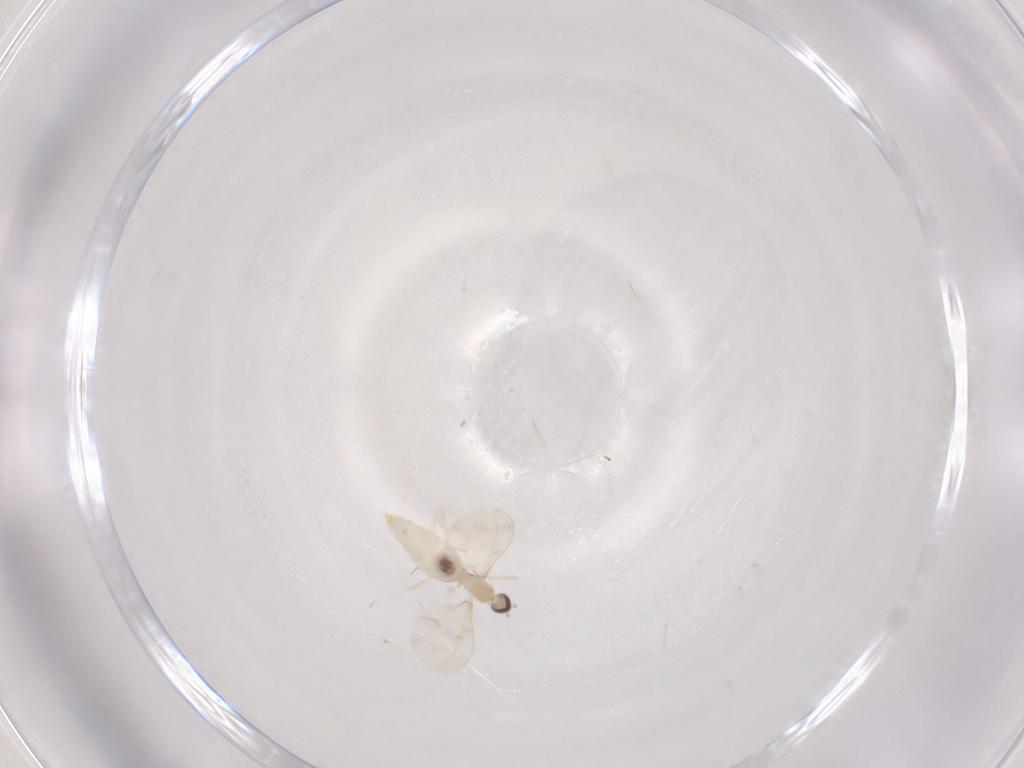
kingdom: Animalia
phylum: Arthropoda
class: Insecta
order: Diptera
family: Cecidomyiidae
